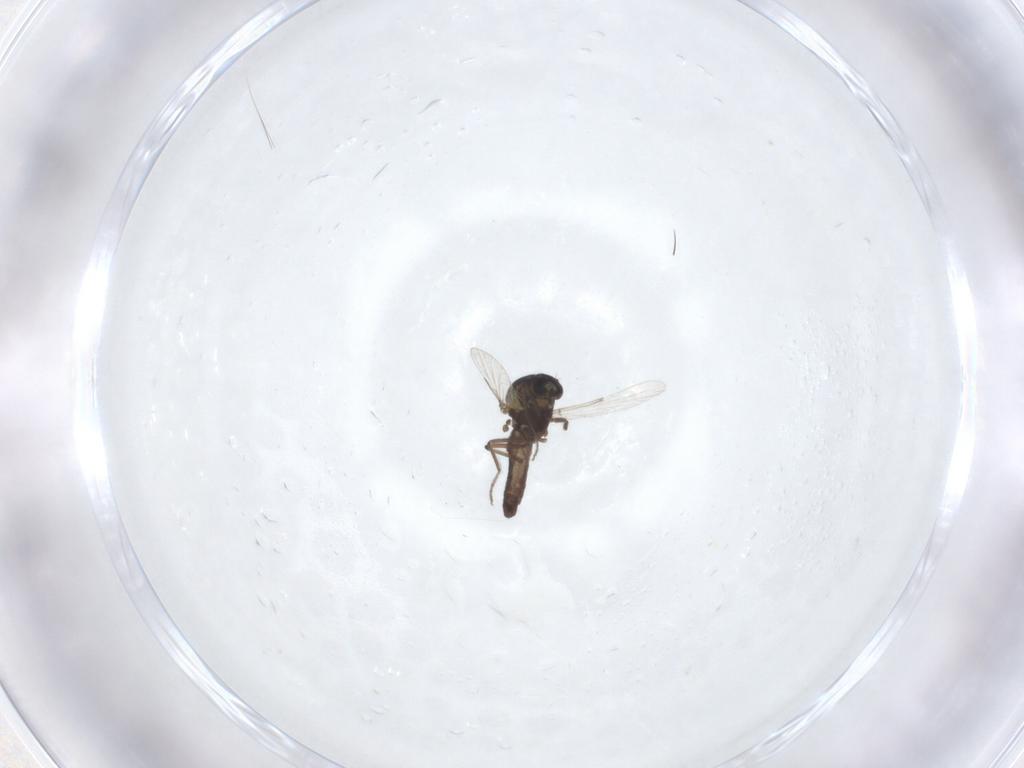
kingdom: Animalia
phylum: Arthropoda
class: Insecta
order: Diptera
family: Ceratopogonidae
